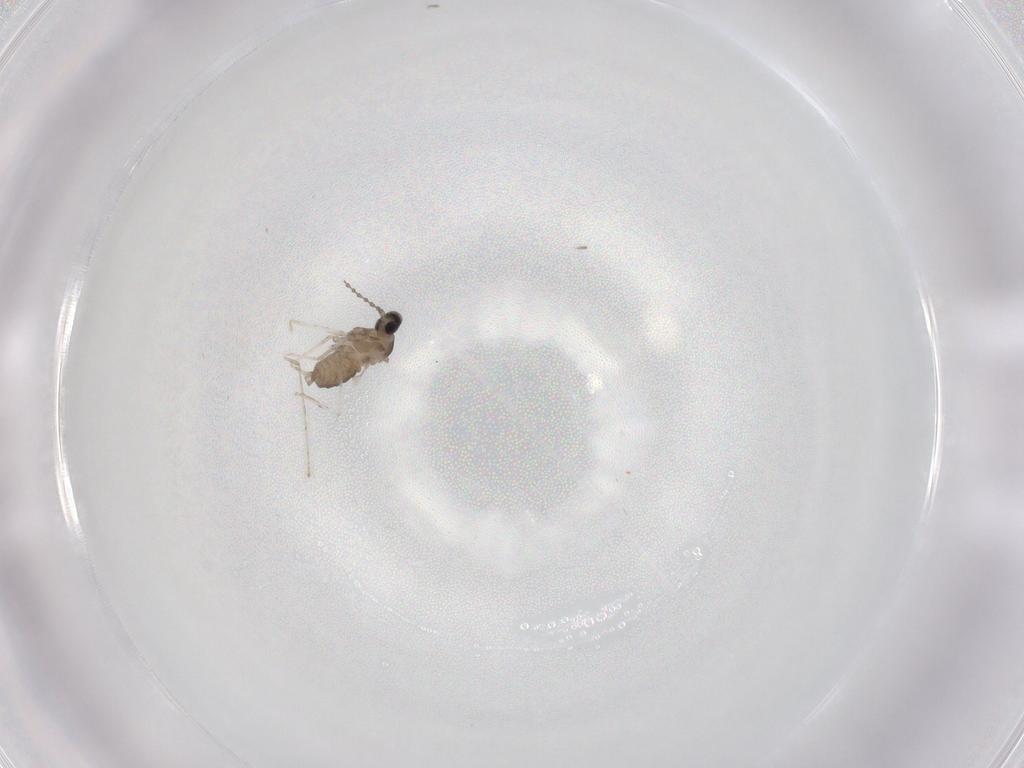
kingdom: Animalia
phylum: Arthropoda
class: Insecta
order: Diptera
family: Cecidomyiidae
